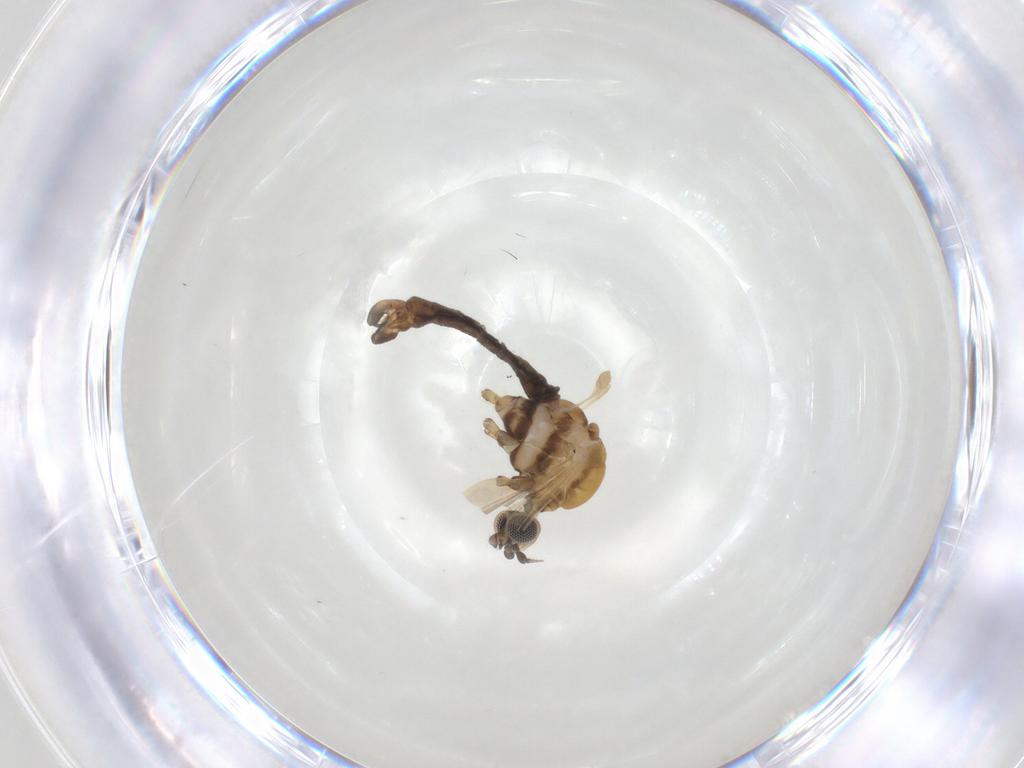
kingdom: Animalia
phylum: Arthropoda
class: Insecta
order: Diptera
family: Limoniidae
